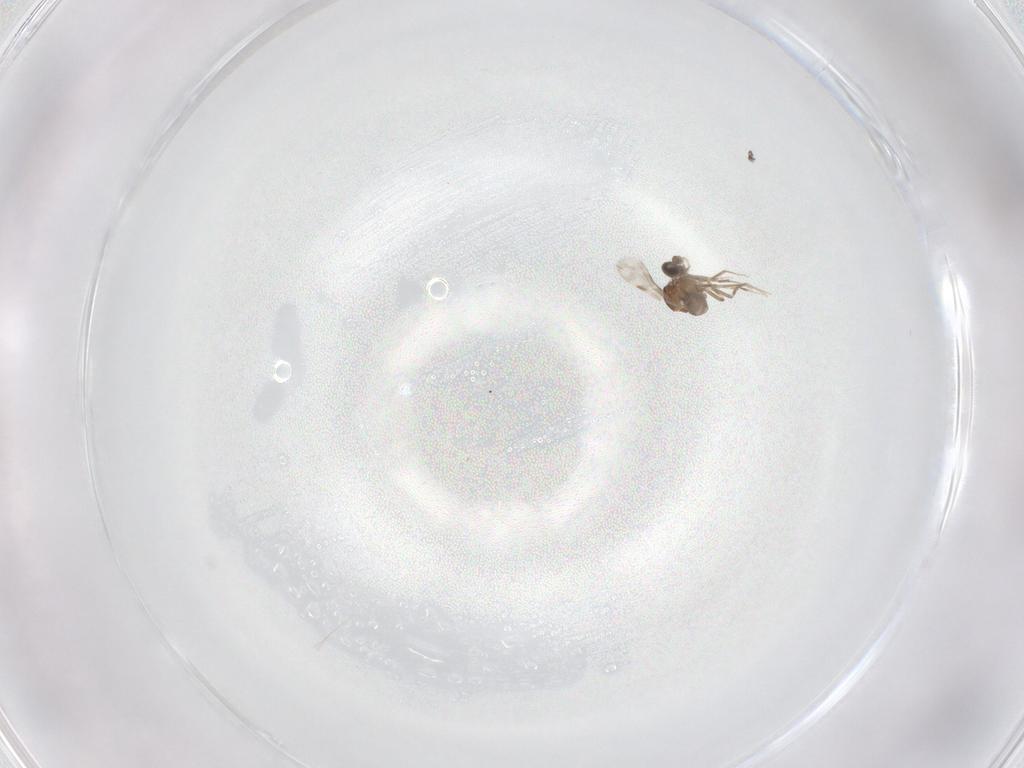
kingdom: Animalia
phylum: Arthropoda
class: Insecta
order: Diptera
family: Ceratopogonidae
